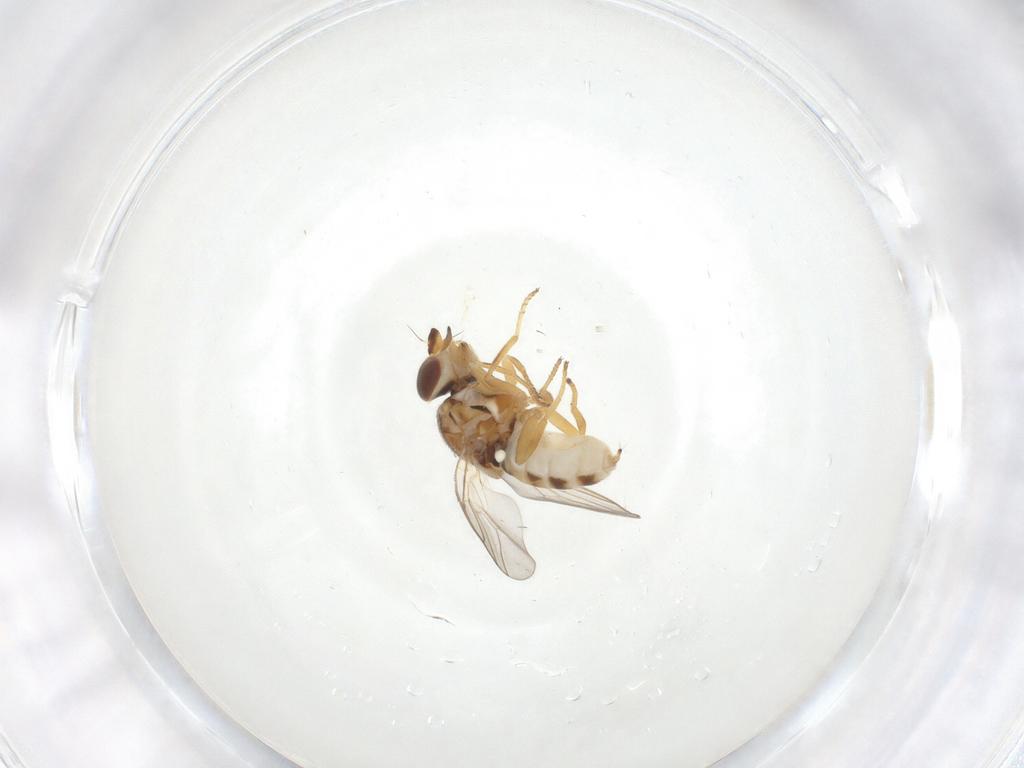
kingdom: Animalia
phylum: Arthropoda
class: Insecta
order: Diptera
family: Chloropidae
